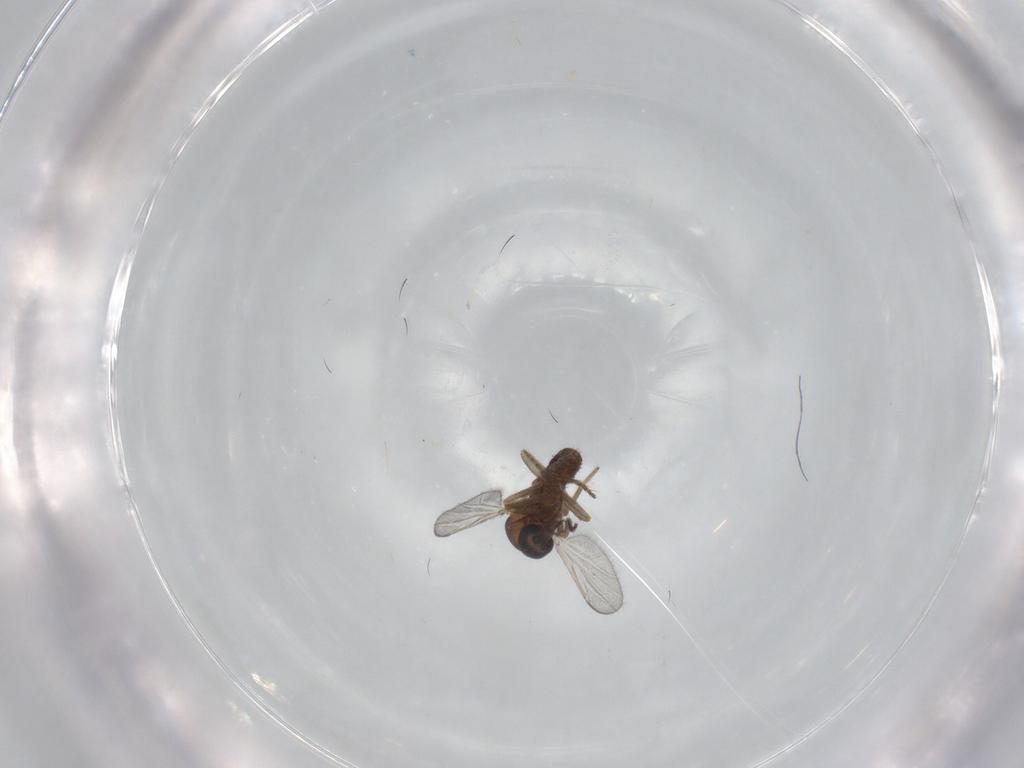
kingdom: Animalia
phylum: Arthropoda
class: Insecta
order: Diptera
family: Ceratopogonidae
